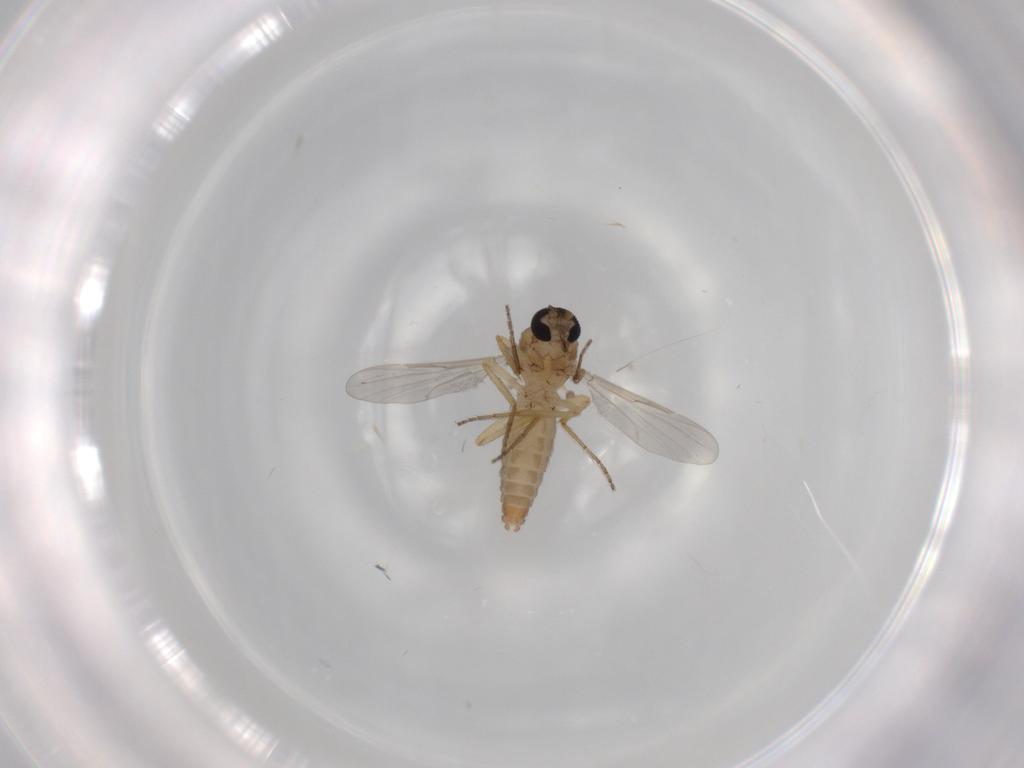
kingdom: Animalia
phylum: Arthropoda
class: Insecta
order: Diptera
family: Ceratopogonidae
